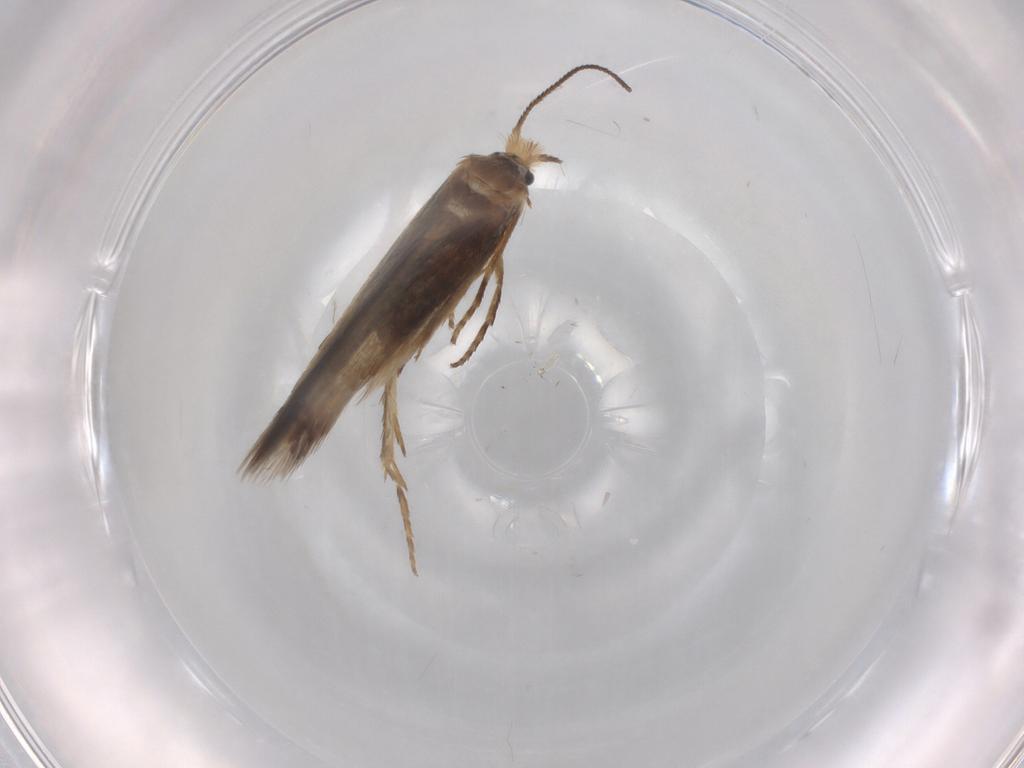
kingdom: Animalia
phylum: Arthropoda
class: Insecta
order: Lepidoptera
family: Nepticulidae
